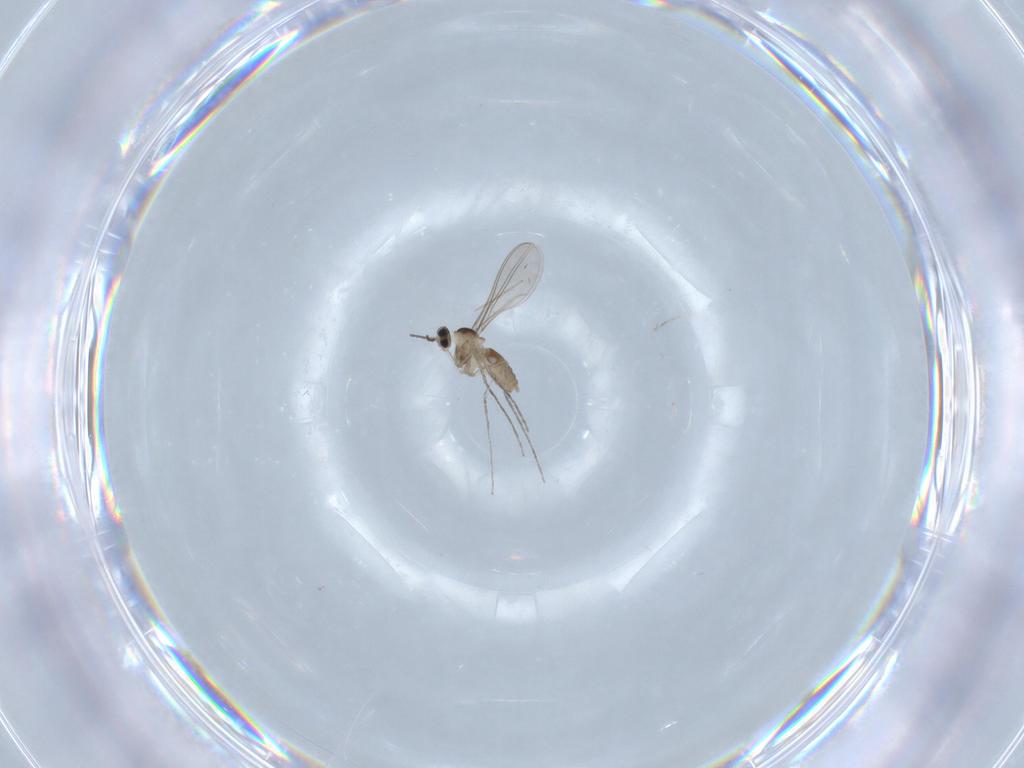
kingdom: Animalia
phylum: Arthropoda
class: Insecta
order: Diptera
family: Cecidomyiidae
